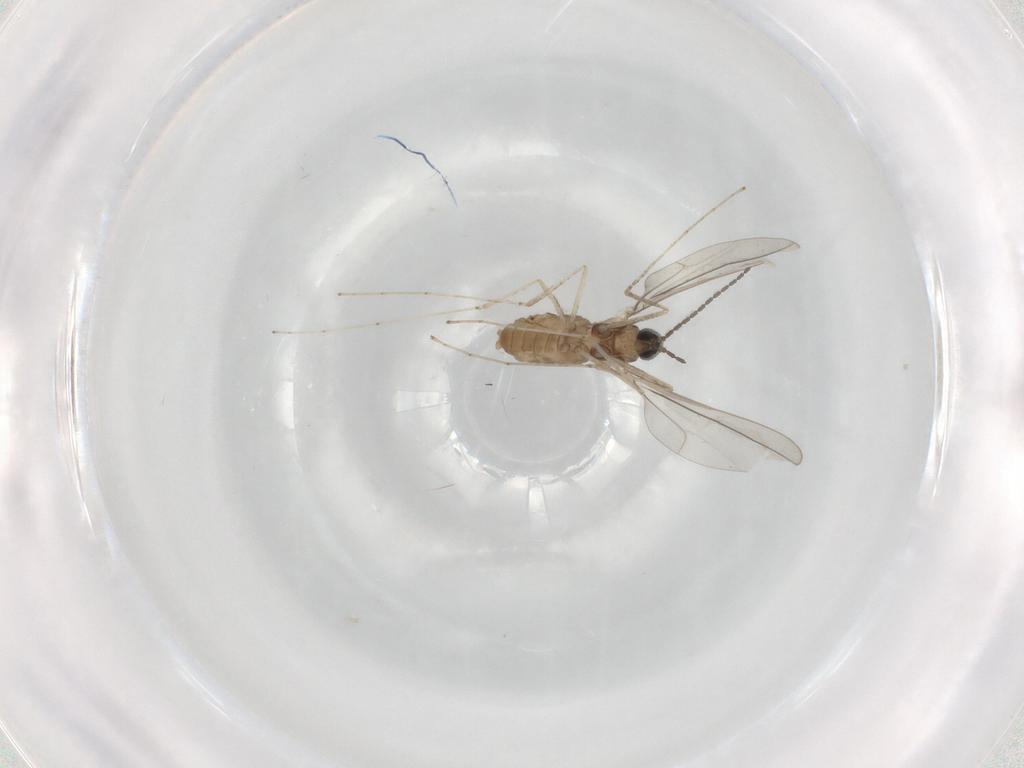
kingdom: Animalia
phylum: Arthropoda
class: Insecta
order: Diptera
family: Cecidomyiidae
